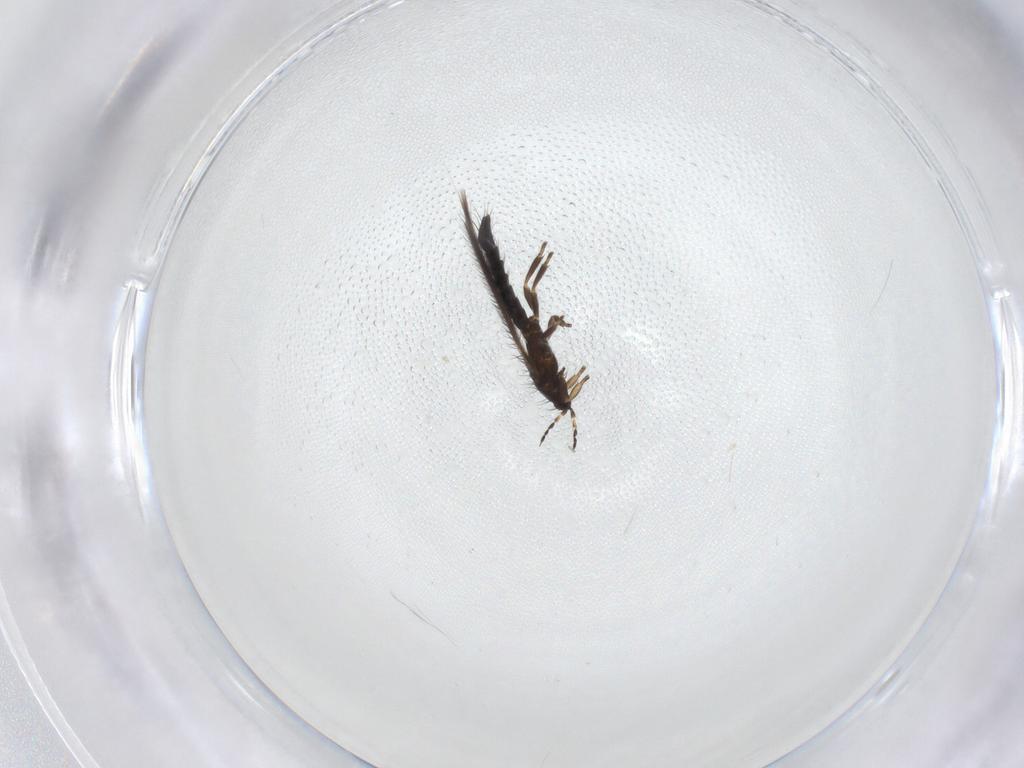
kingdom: Animalia
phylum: Arthropoda
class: Insecta
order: Thysanoptera
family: Thripidae
